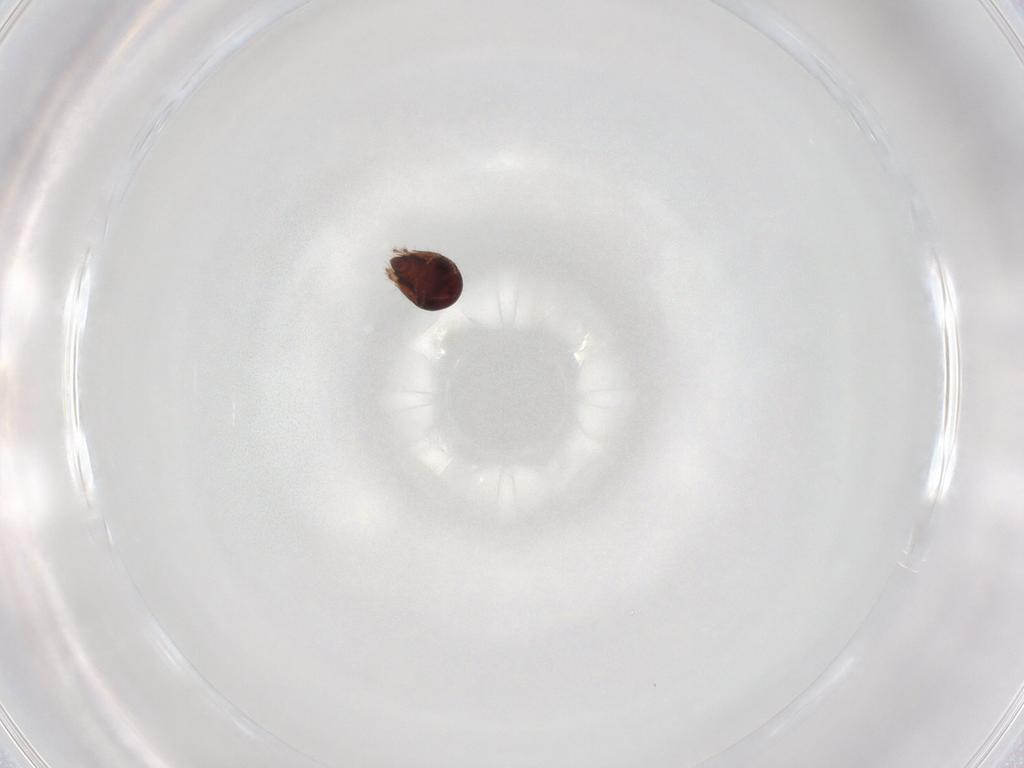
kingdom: Animalia
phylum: Arthropoda
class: Arachnida
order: Sarcoptiformes
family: Humerobatidae
